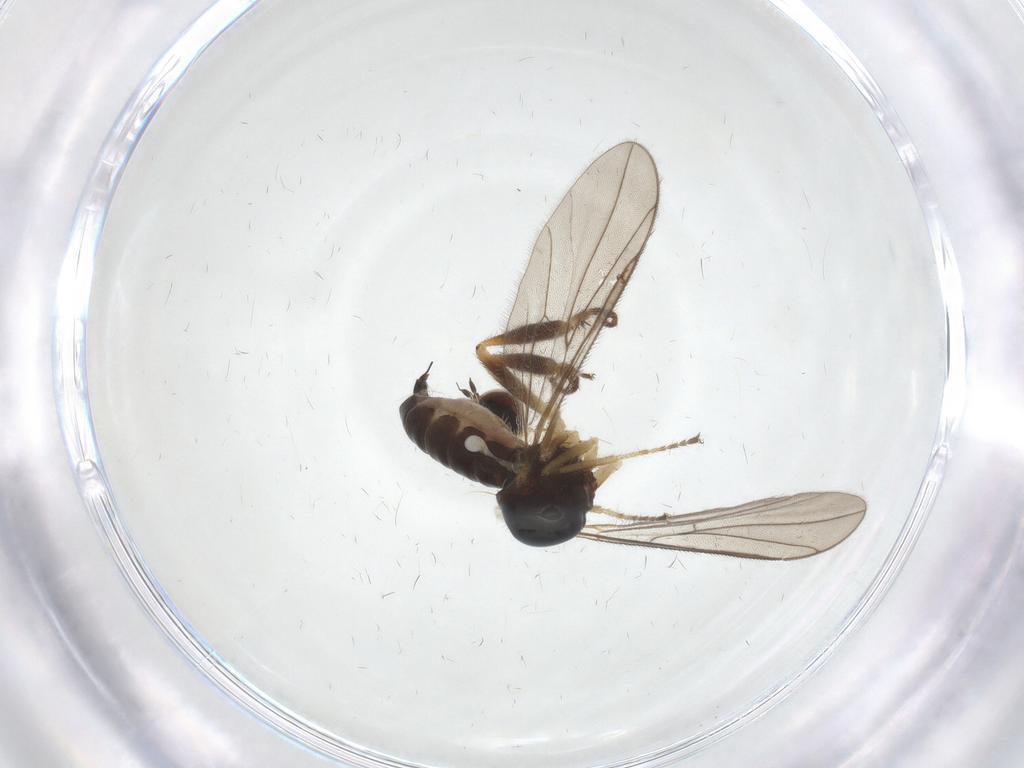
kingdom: Animalia
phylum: Arthropoda
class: Insecta
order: Diptera
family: Hybotidae
